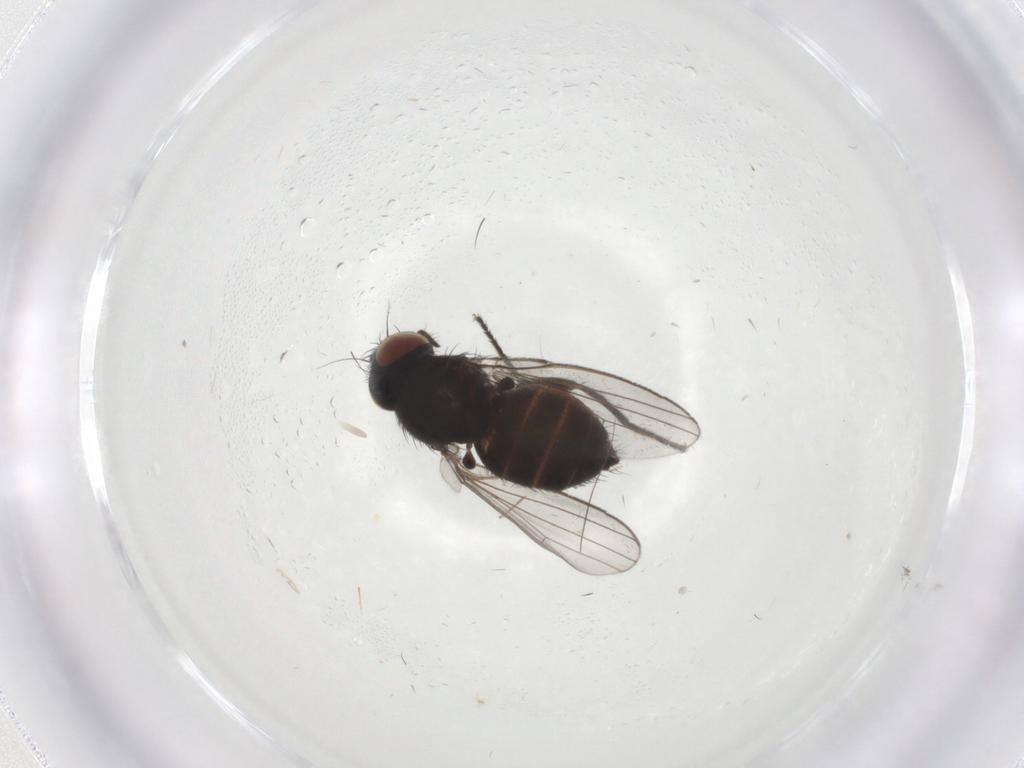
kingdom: Animalia
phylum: Arthropoda
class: Insecta
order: Diptera
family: Milichiidae
